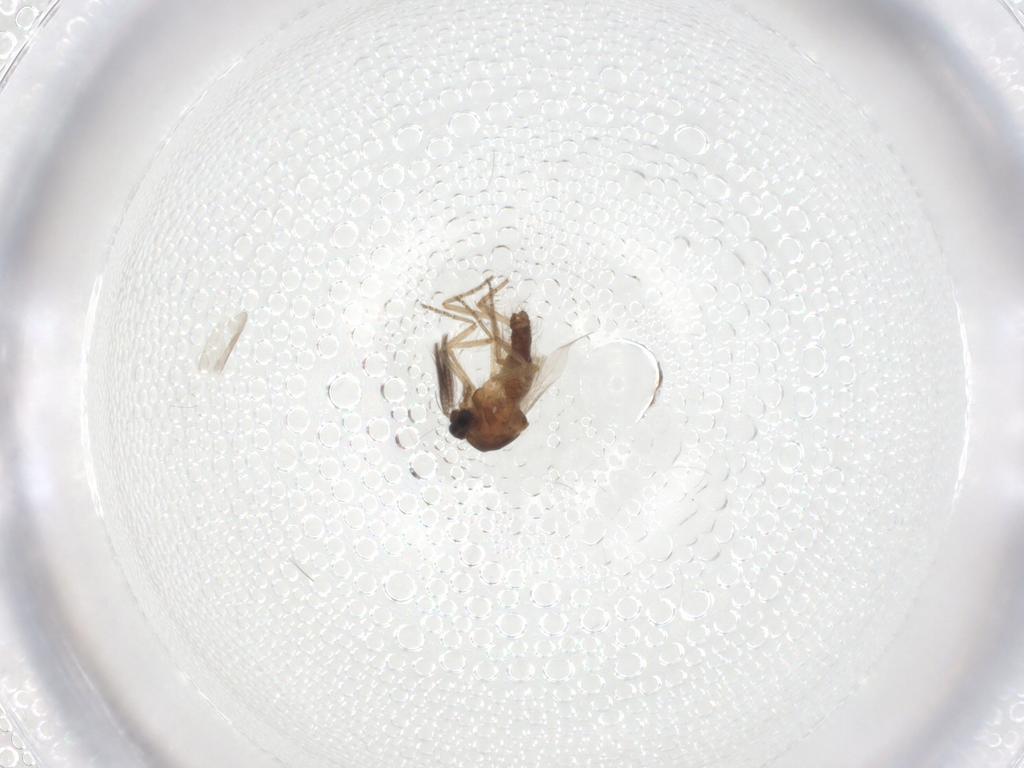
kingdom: Animalia
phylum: Arthropoda
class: Insecta
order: Diptera
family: Ceratopogonidae
